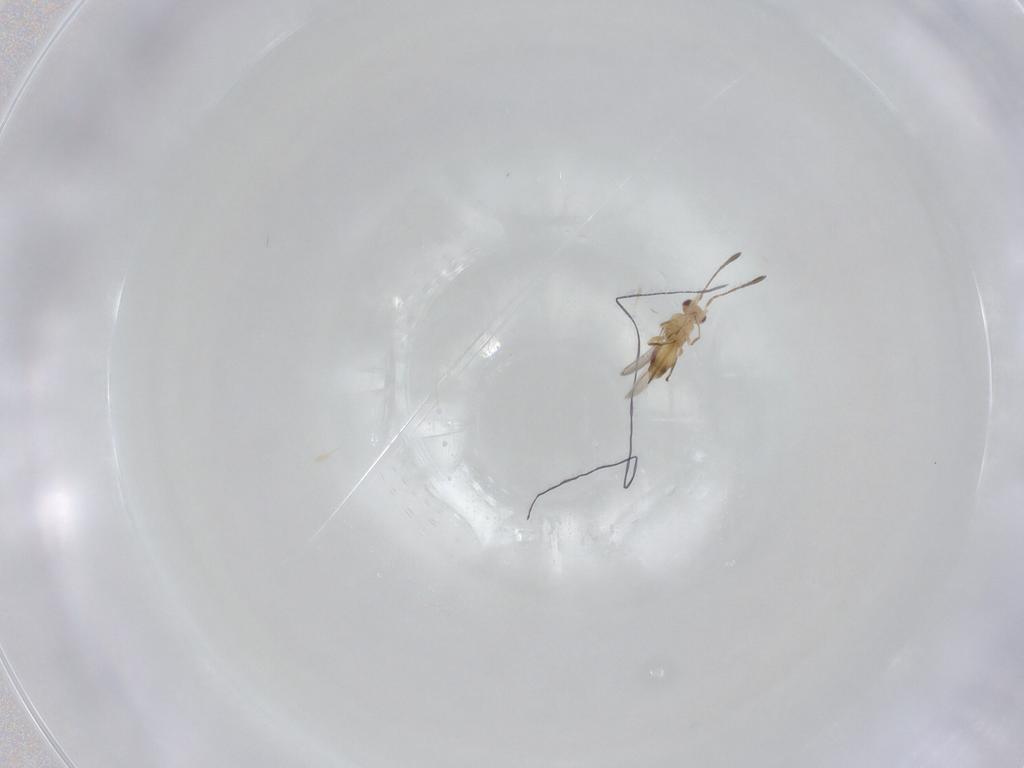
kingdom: Animalia
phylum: Arthropoda
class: Insecta
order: Hymenoptera
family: Mymaridae
